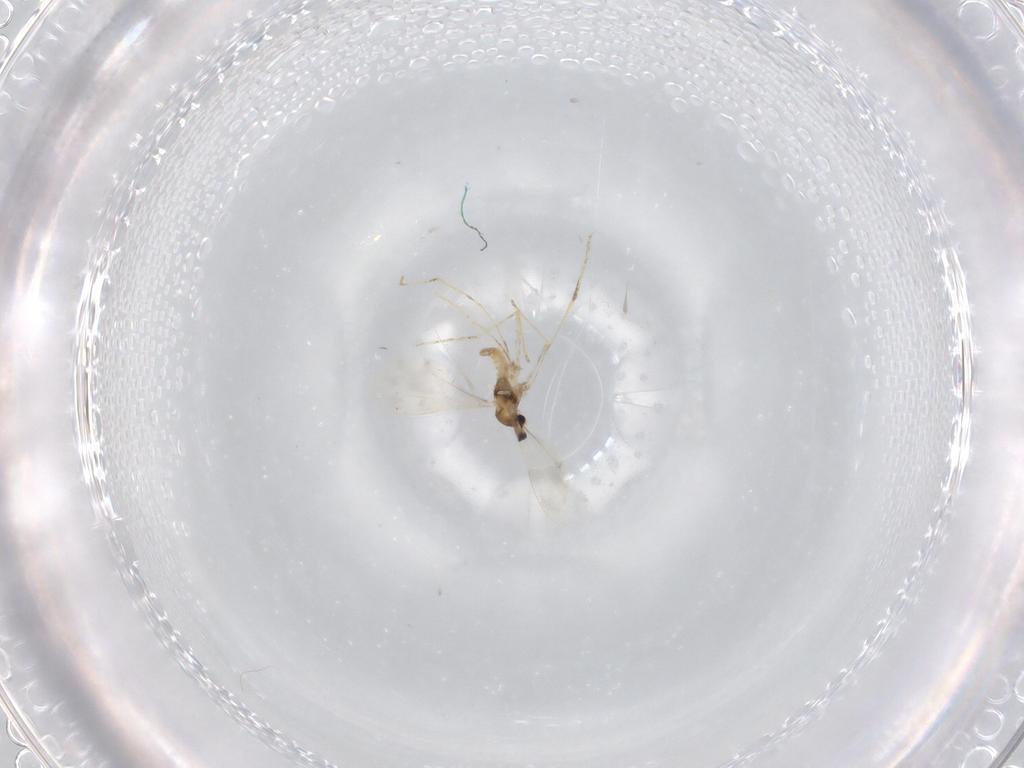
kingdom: Animalia
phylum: Arthropoda
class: Insecta
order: Diptera
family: Cecidomyiidae
